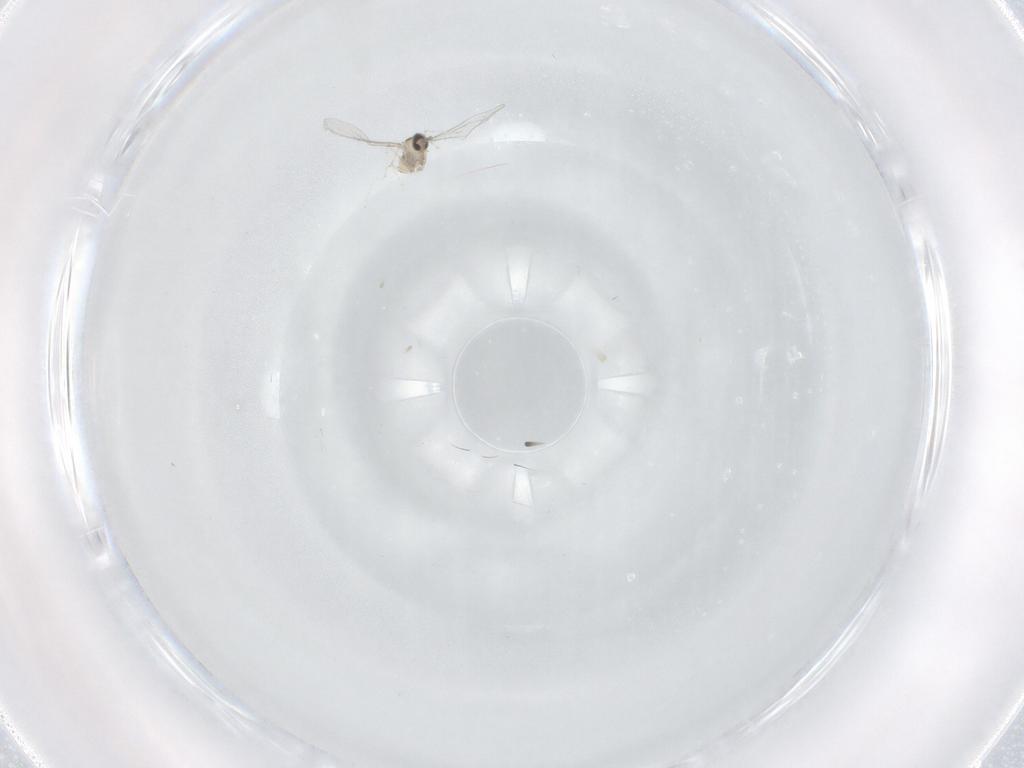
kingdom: Animalia
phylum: Arthropoda
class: Insecta
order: Diptera
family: Cecidomyiidae
